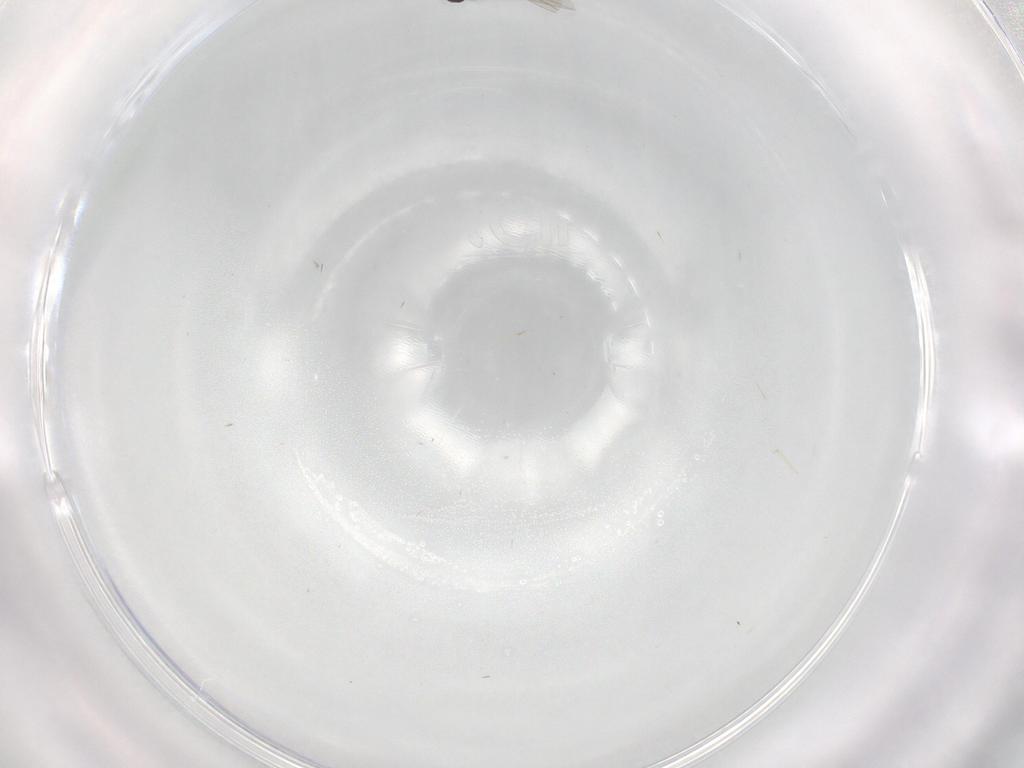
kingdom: Animalia
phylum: Arthropoda
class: Insecta
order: Diptera
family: Cecidomyiidae
